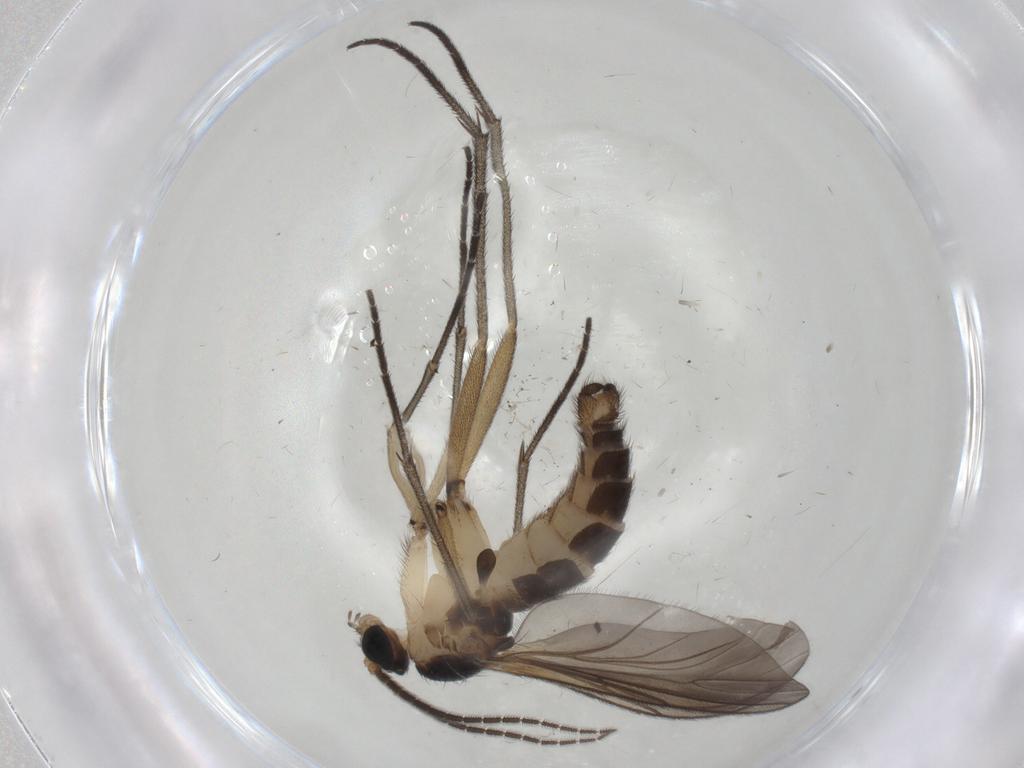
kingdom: Animalia
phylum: Arthropoda
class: Insecta
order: Diptera
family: Sciaridae
